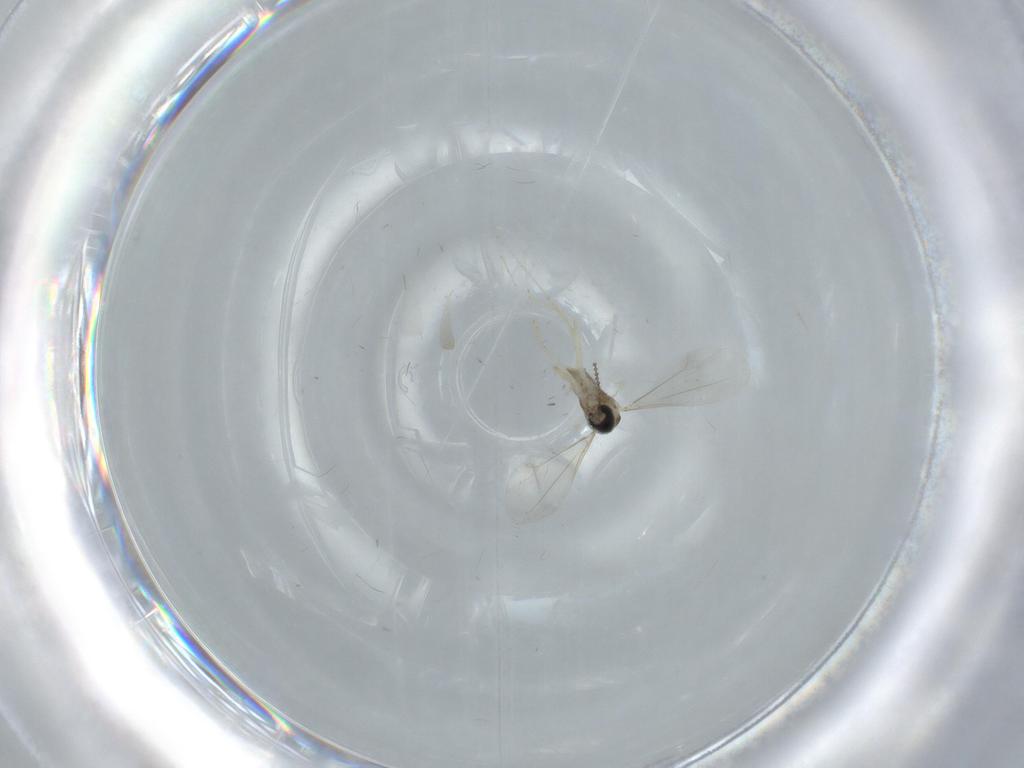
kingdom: Animalia
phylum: Arthropoda
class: Insecta
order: Diptera
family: Cecidomyiidae
